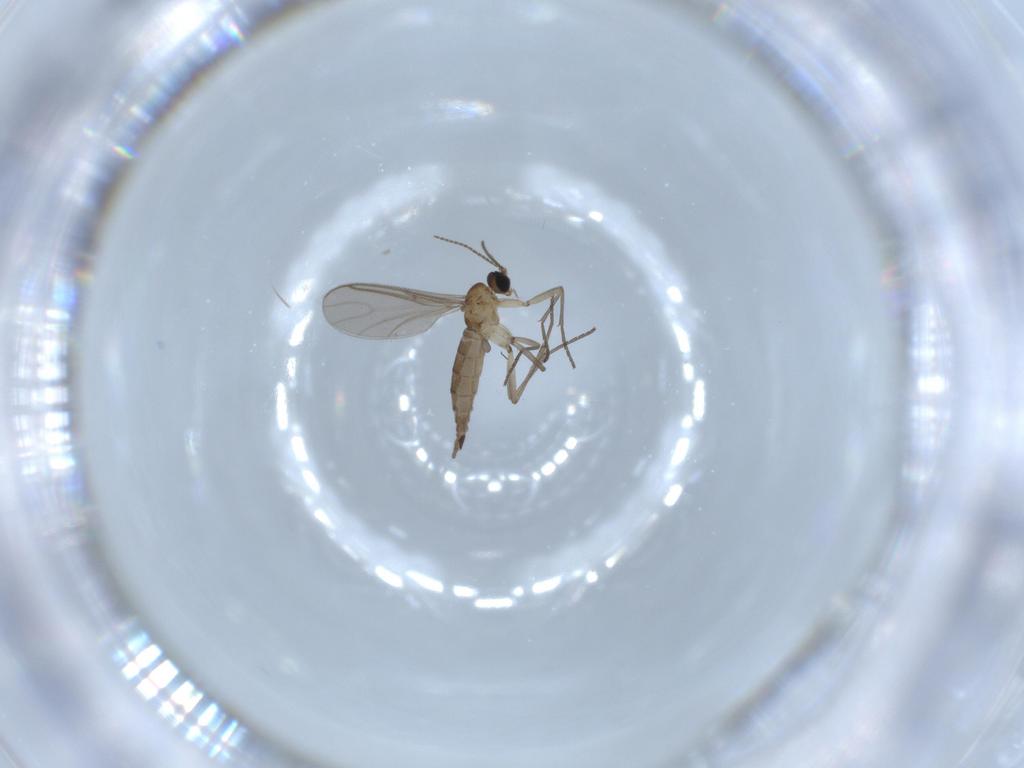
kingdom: Animalia
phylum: Arthropoda
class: Insecta
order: Diptera
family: Sciaridae
